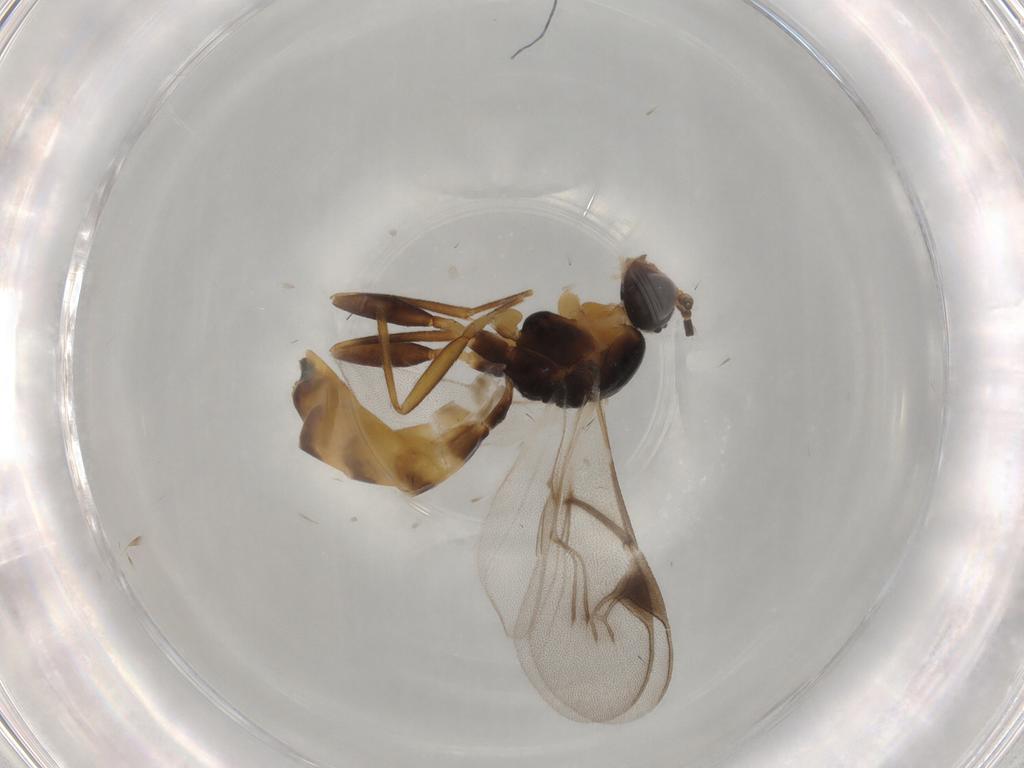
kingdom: Animalia
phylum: Arthropoda
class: Insecta
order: Hymenoptera
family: Braconidae
